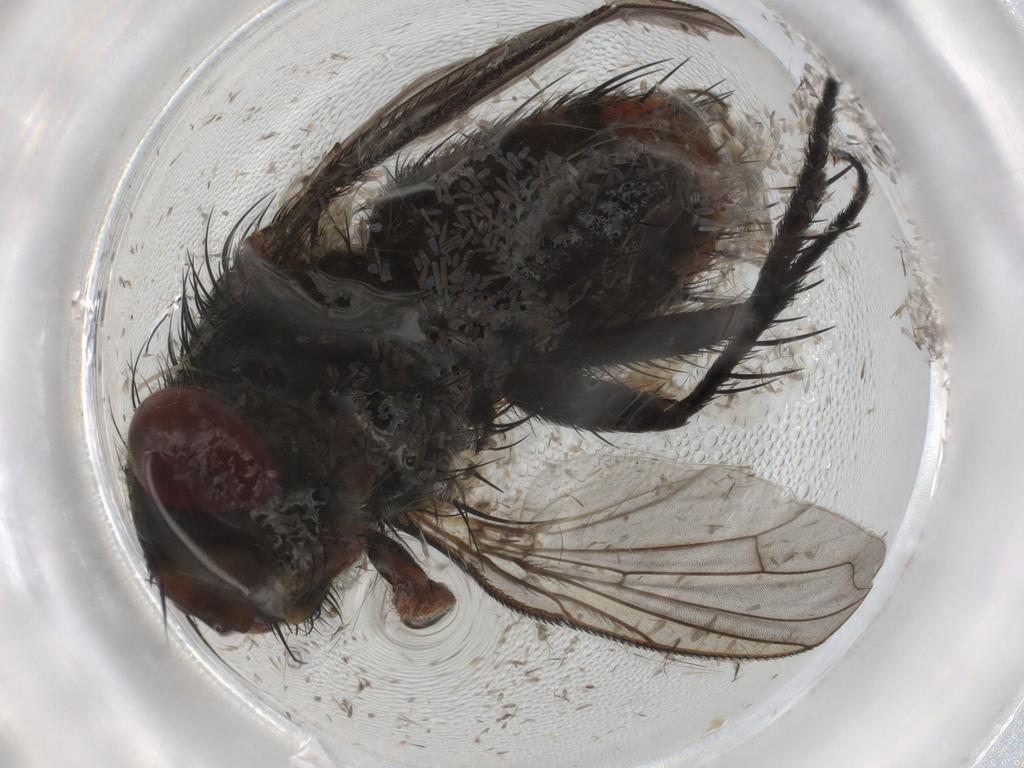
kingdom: Animalia
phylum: Arthropoda
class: Insecta
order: Diptera
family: Tachinidae
